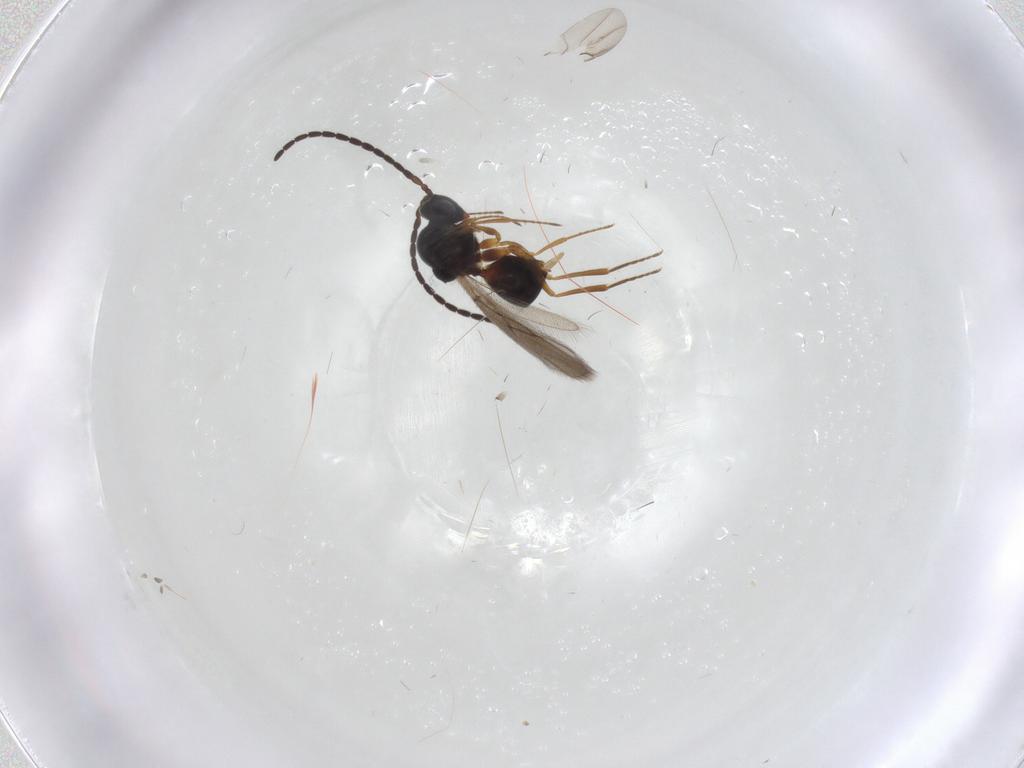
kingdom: Animalia
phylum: Arthropoda
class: Insecta
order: Hymenoptera
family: Figitidae
